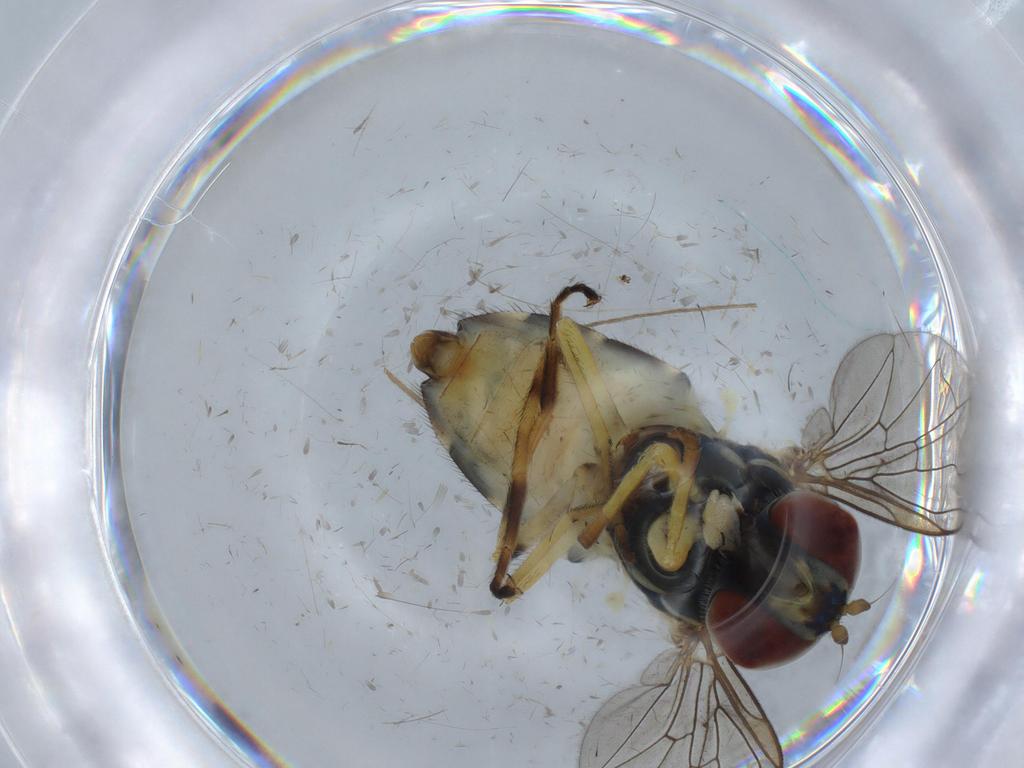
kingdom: Animalia
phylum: Arthropoda
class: Insecta
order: Diptera
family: Syrphidae
